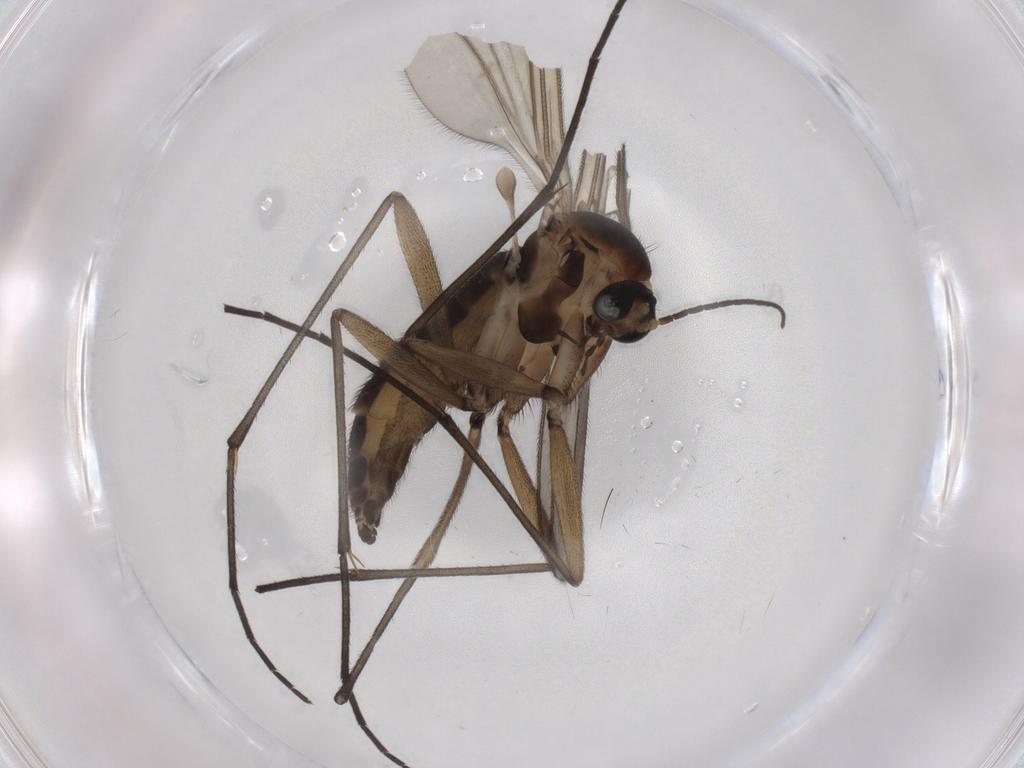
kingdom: Animalia
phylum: Arthropoda
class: Insecta
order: Diptera
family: Sciaridae
